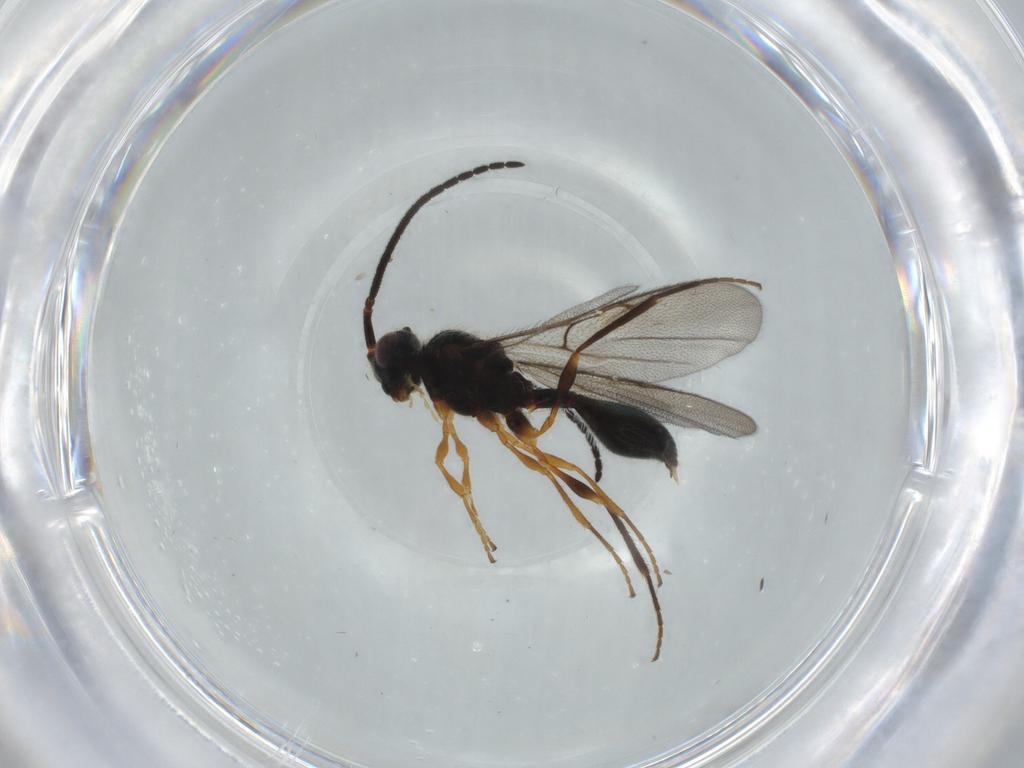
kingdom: Animalia
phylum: Arthropoda
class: Insecta
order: Hymenoptera
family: Diapriidae
